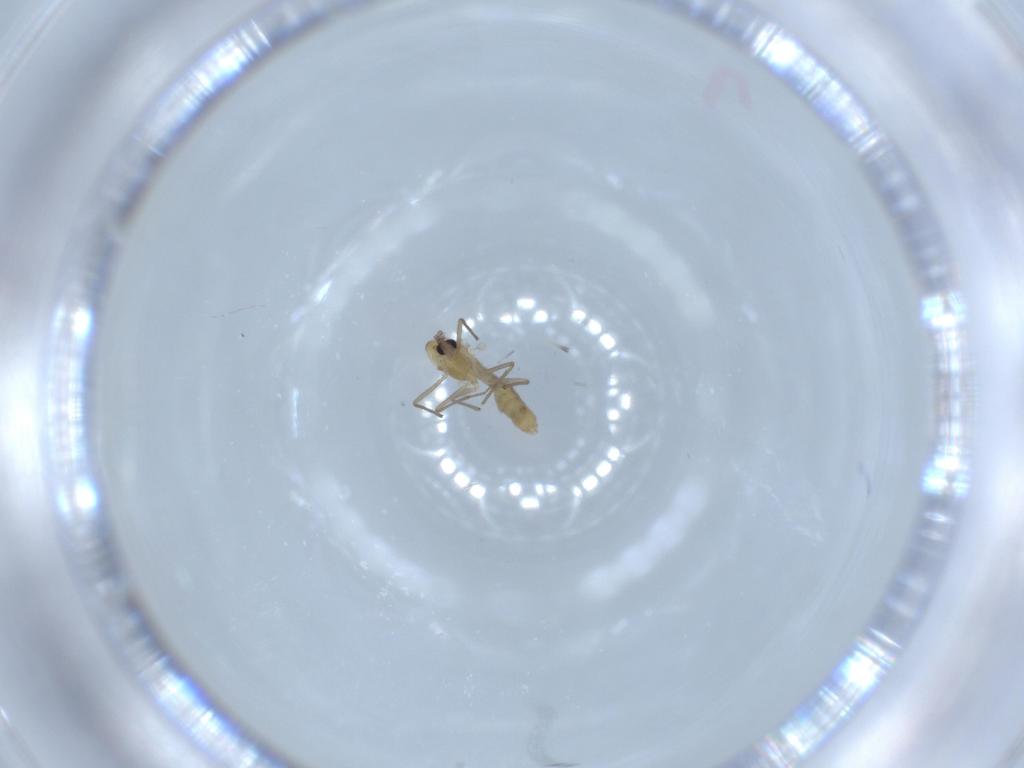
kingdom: Animalia
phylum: Arthropoda
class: Insecta
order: Diptera
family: Chironomidae
